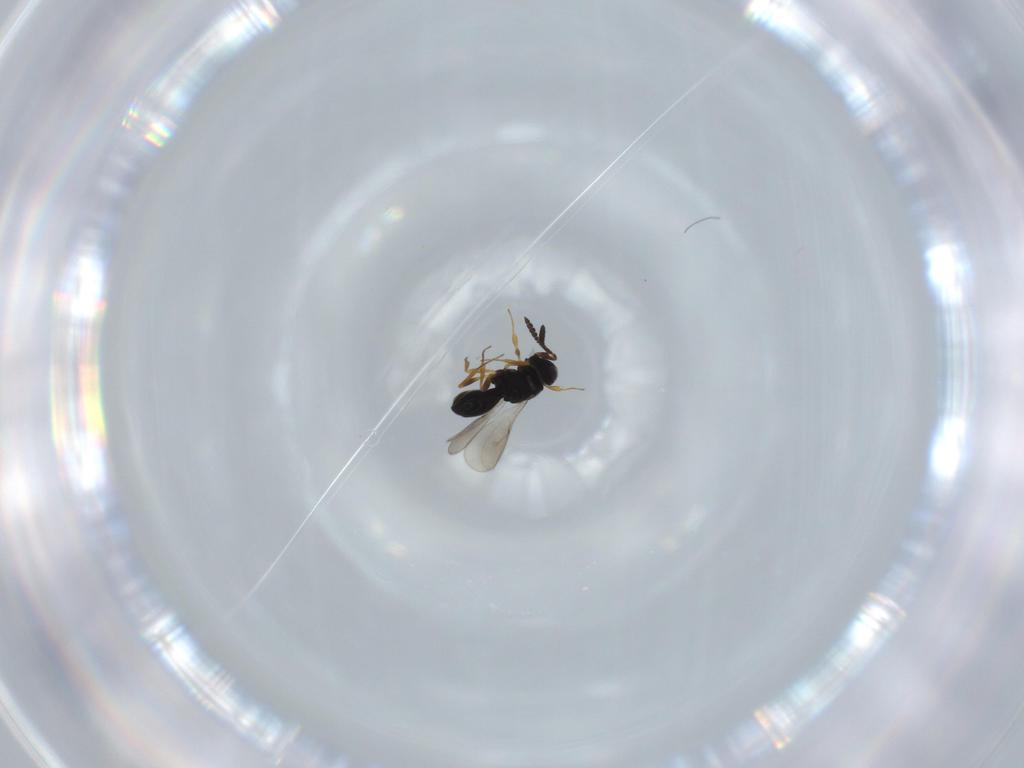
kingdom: Animalia
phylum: Arthropoda
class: Insecta
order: Hymenoptera
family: Scelionidae
